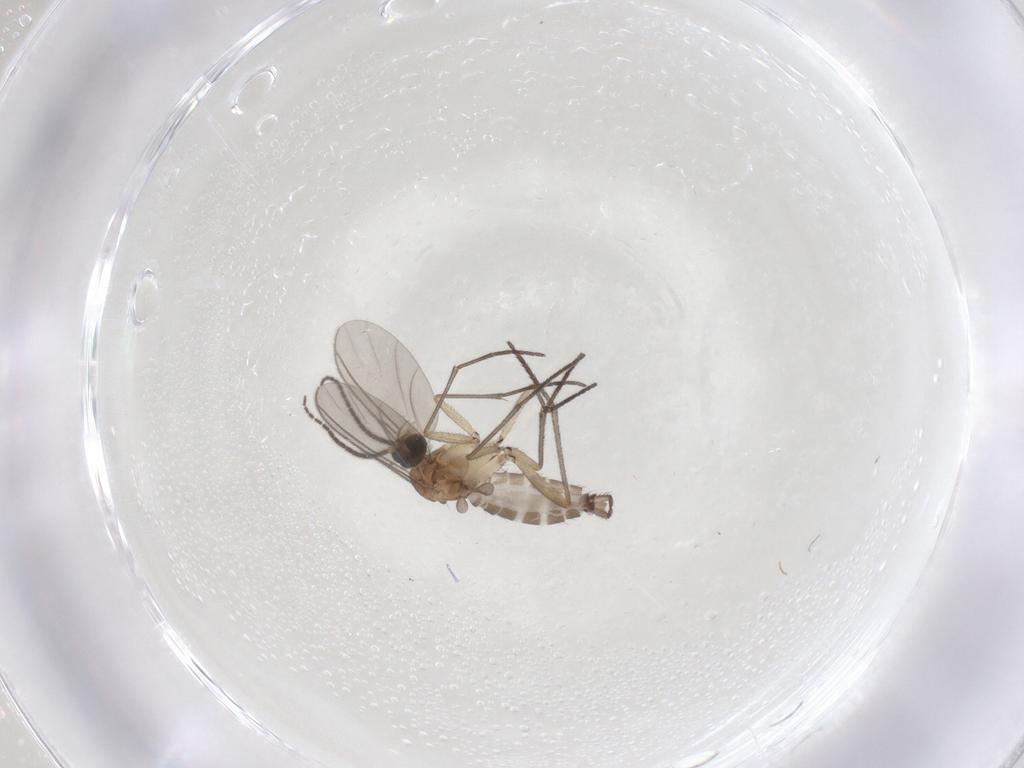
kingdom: Animalia
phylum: Arthropoda
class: Insecta
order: Diptera
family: Sciaridae
